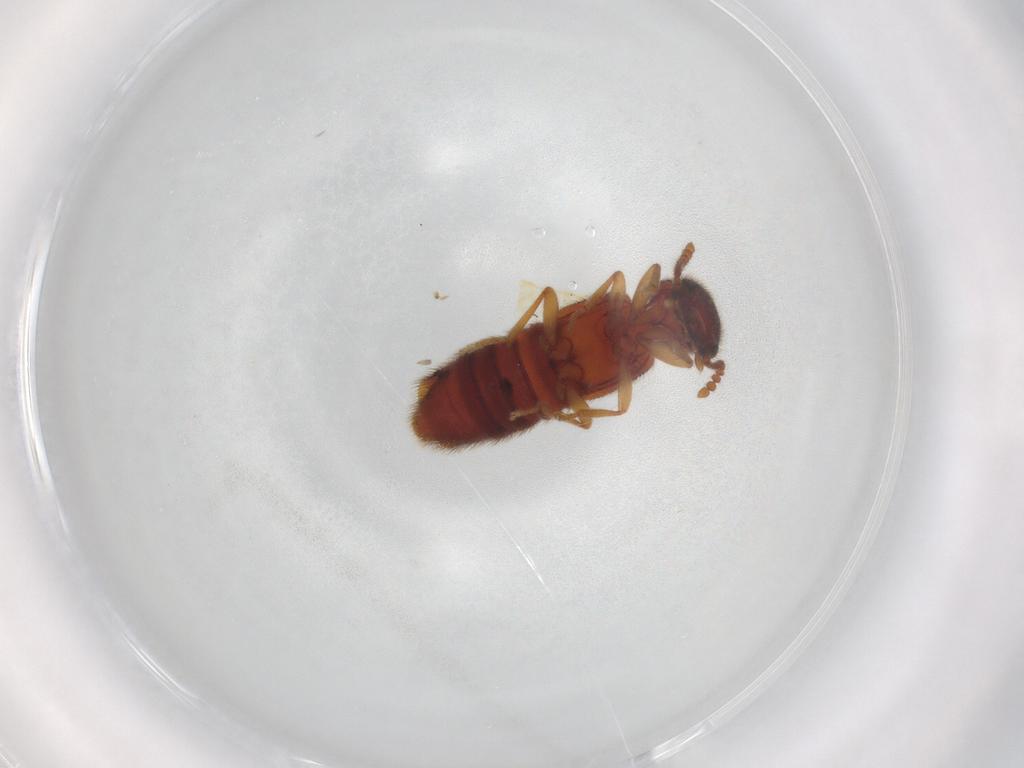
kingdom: Animalia
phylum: Arthropoda
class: Insecta
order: Coleoptera
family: Staphylinidae
